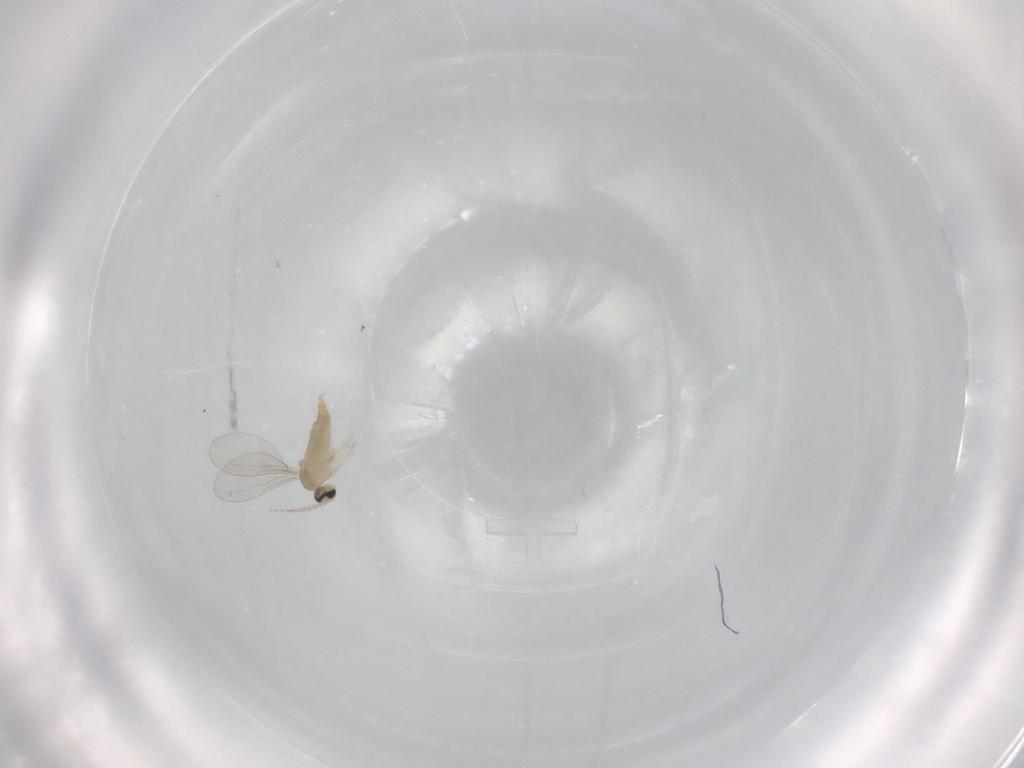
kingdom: Animalia
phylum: Arthropoda
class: Insecta
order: Diptera
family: Cecidomyiidae
